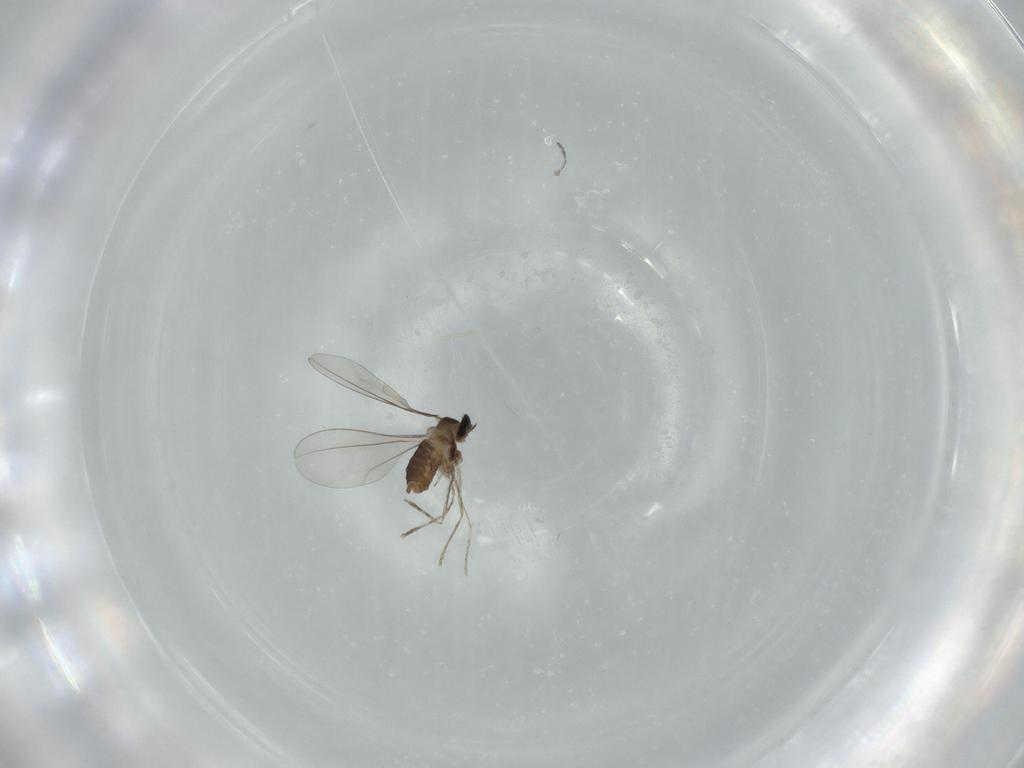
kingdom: Animalia
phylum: Arthropoda
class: Insecta
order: Diptera
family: Cecidomyiidae
